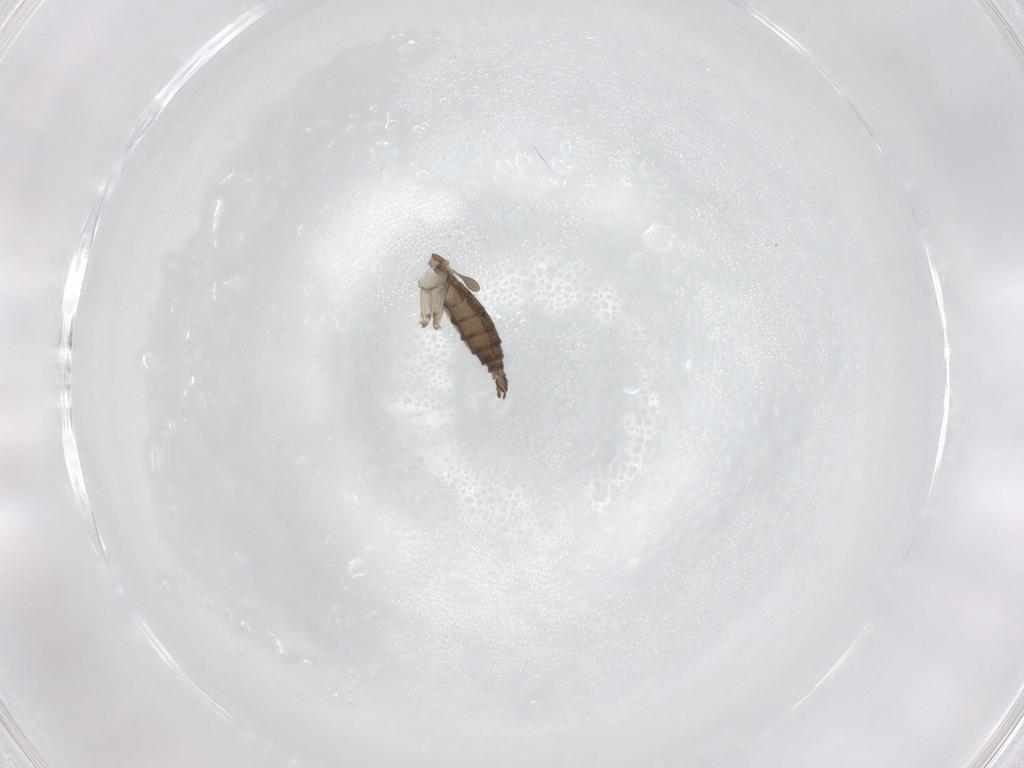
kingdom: Animalia
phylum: Arthropoda
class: Insecta
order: Diptera
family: Sciaridae
